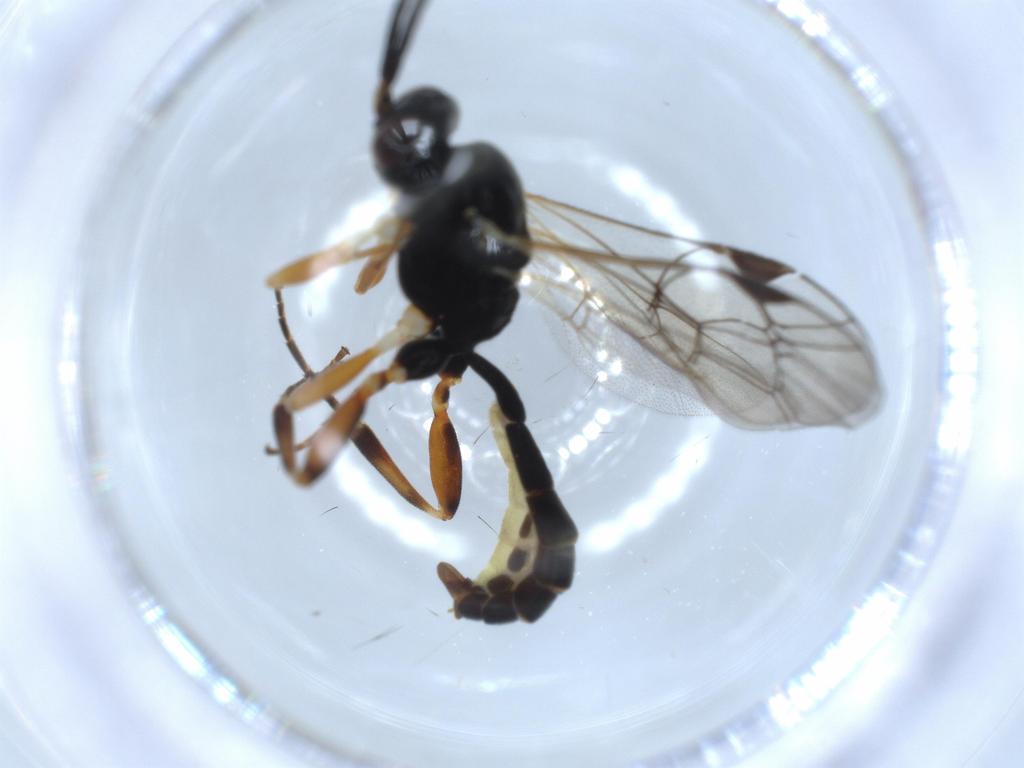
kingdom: Animalia
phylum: Arthropoda
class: Insecta
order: Hymenoptera
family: Ichneumonidae
